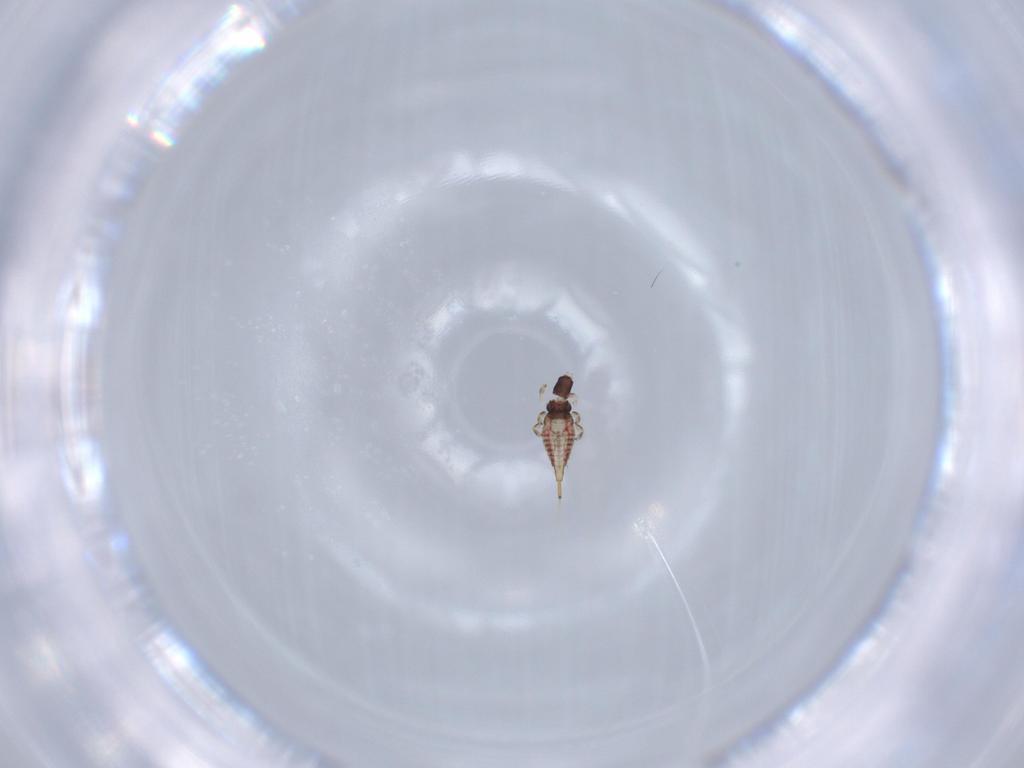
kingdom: Animalia
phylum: Arthropoda
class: Insecta
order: Thysanoptera
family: Phlaeothripidae
